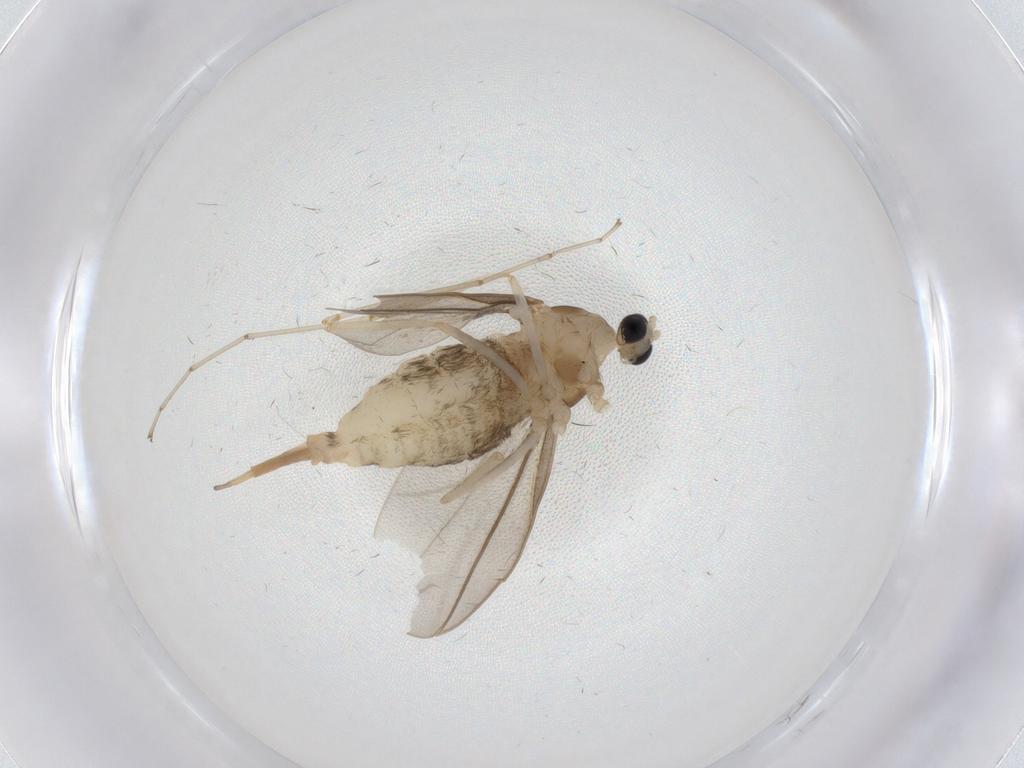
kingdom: Animalia
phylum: Arthropoda
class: Insecta
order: Diptera
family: Cecidomyiidae
